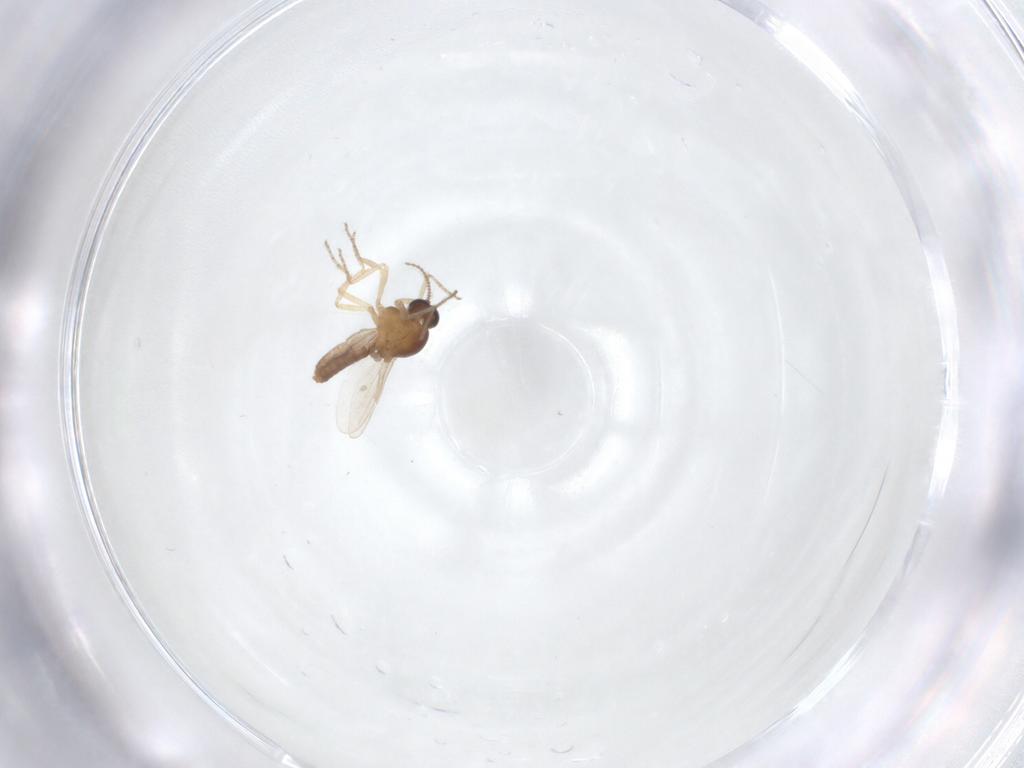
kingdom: Animalia
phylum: Arthropoda
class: Insecta
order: Diptera
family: Ceratopogonidae
